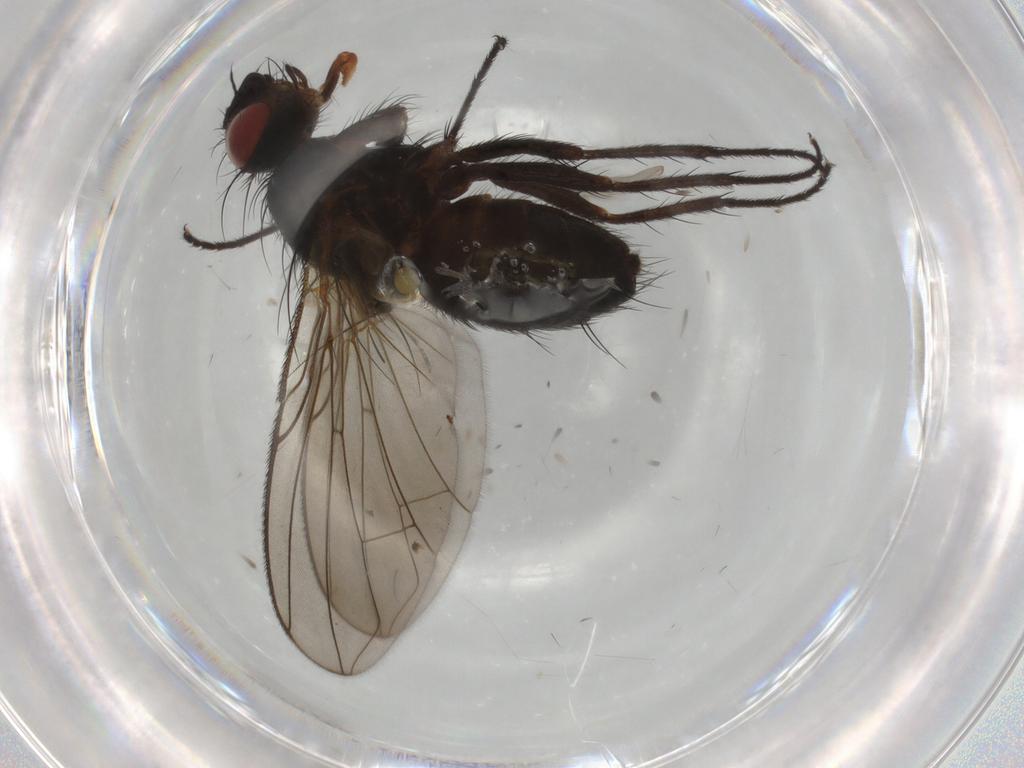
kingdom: Animalia
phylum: Arthropoda
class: Insecta
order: Diptera
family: Tachinidae
